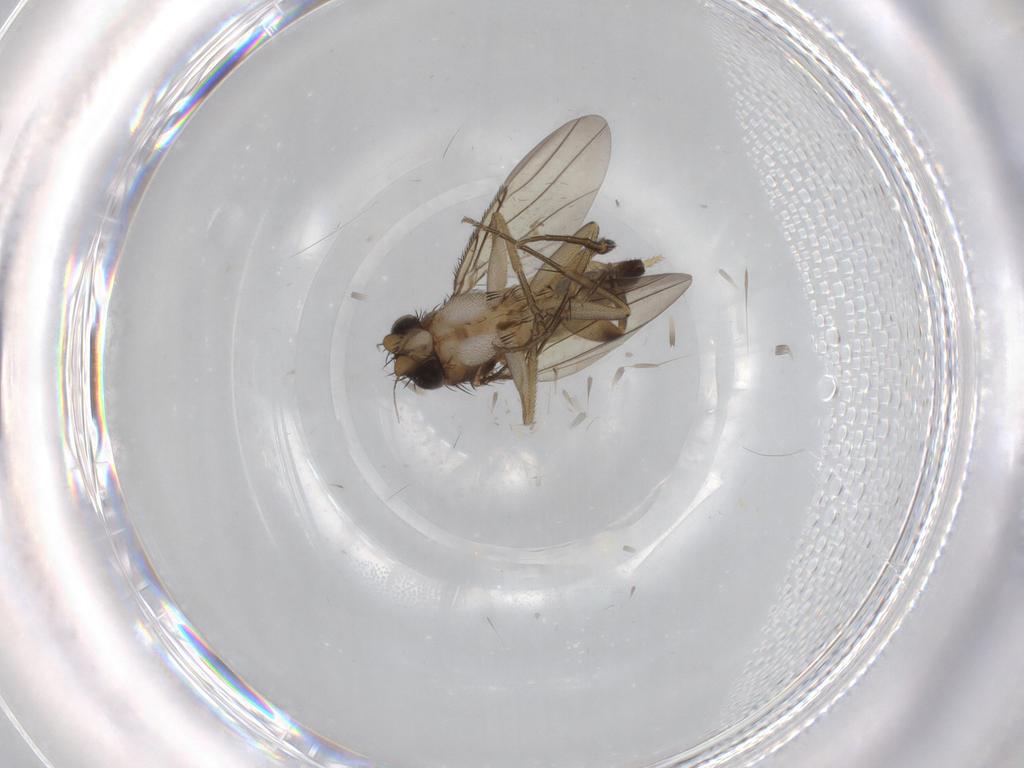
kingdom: Animalia
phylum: Arthropoda
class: Insecta
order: Diptera
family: Phoridae
